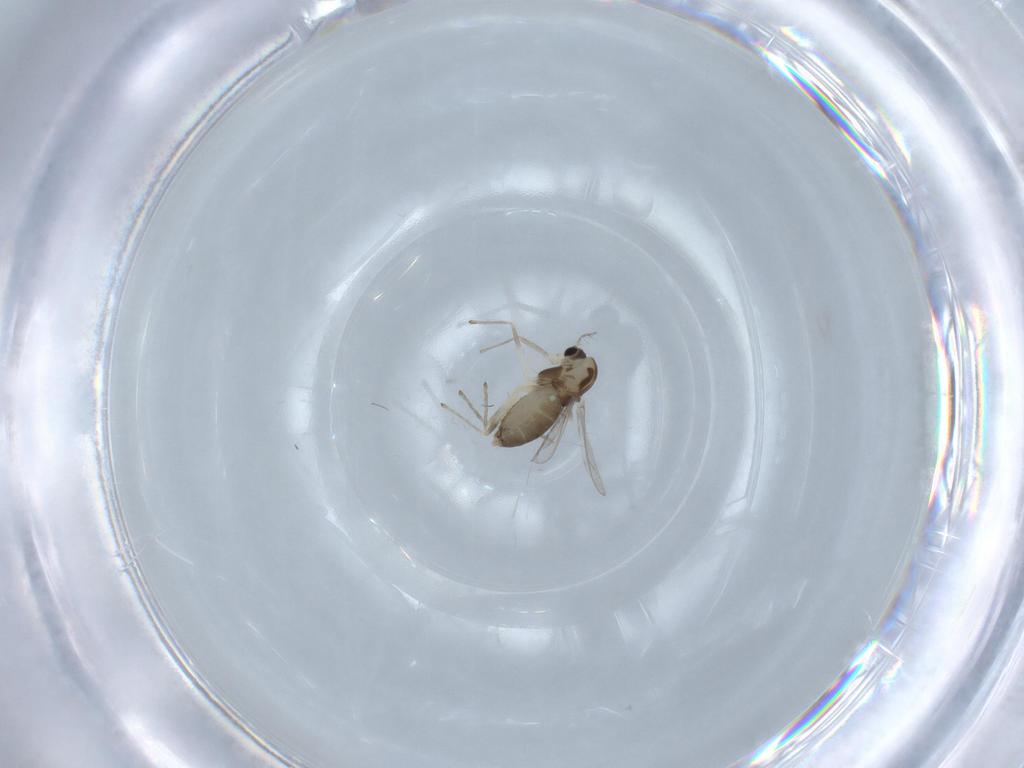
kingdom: Animalia
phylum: Arthropoda
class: Insecta
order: Diptera
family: Chironomidae
